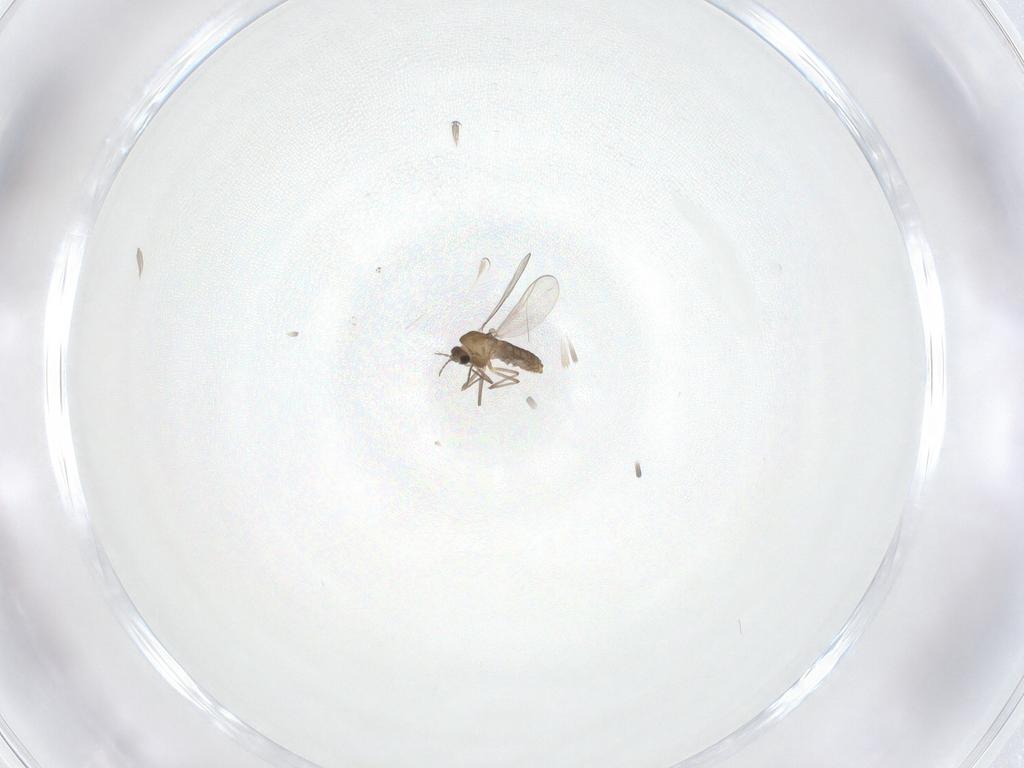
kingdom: Animalia
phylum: Arthropoda
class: Insecta
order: Diptera
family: Chironomidae
